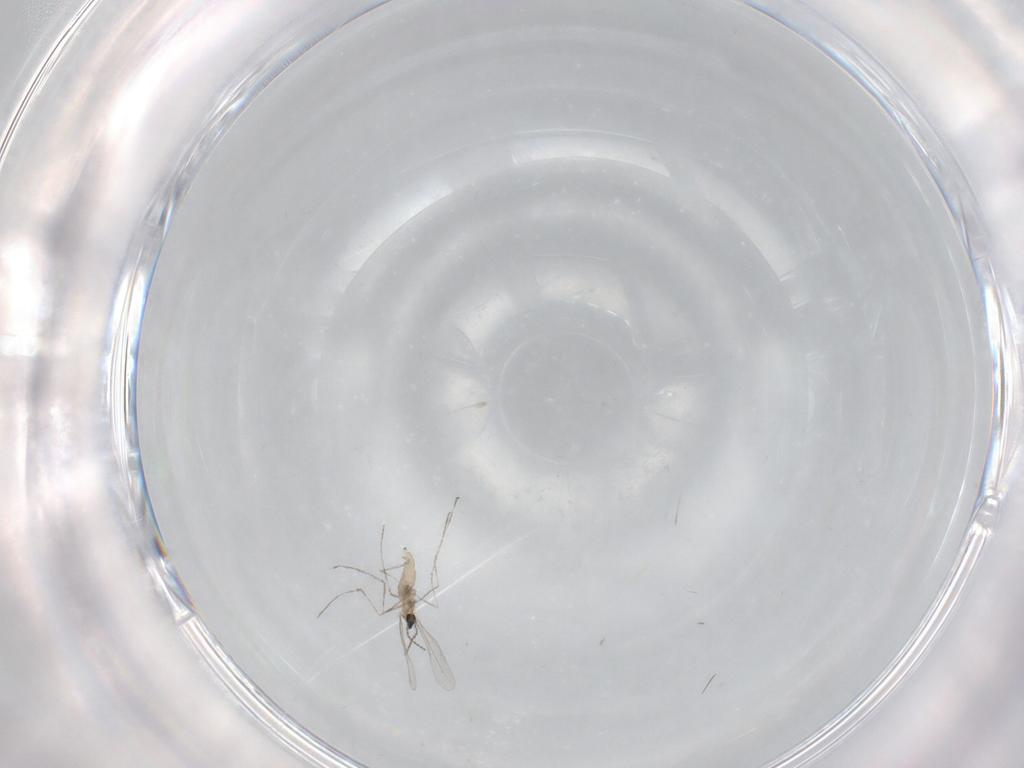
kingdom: Animalia
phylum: Arthropoda
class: Insecta
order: Diptera
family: Cecidomyiidae
